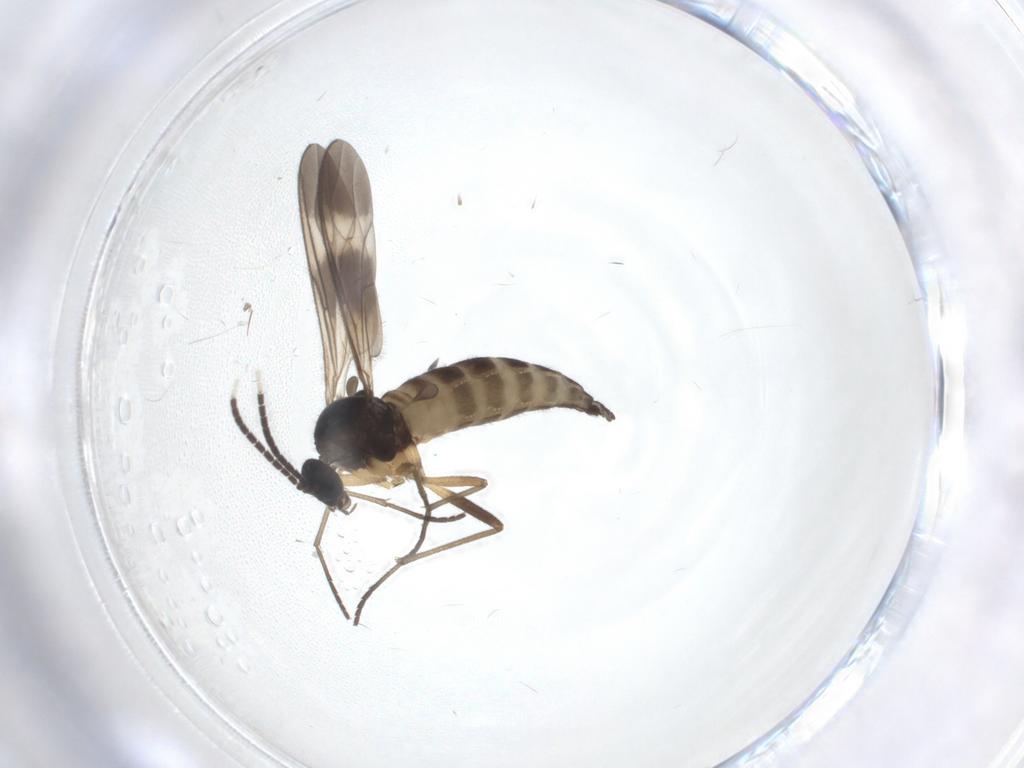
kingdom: Animalia
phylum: Arthropoda
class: Insecta
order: Diptera
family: Sciaridae
